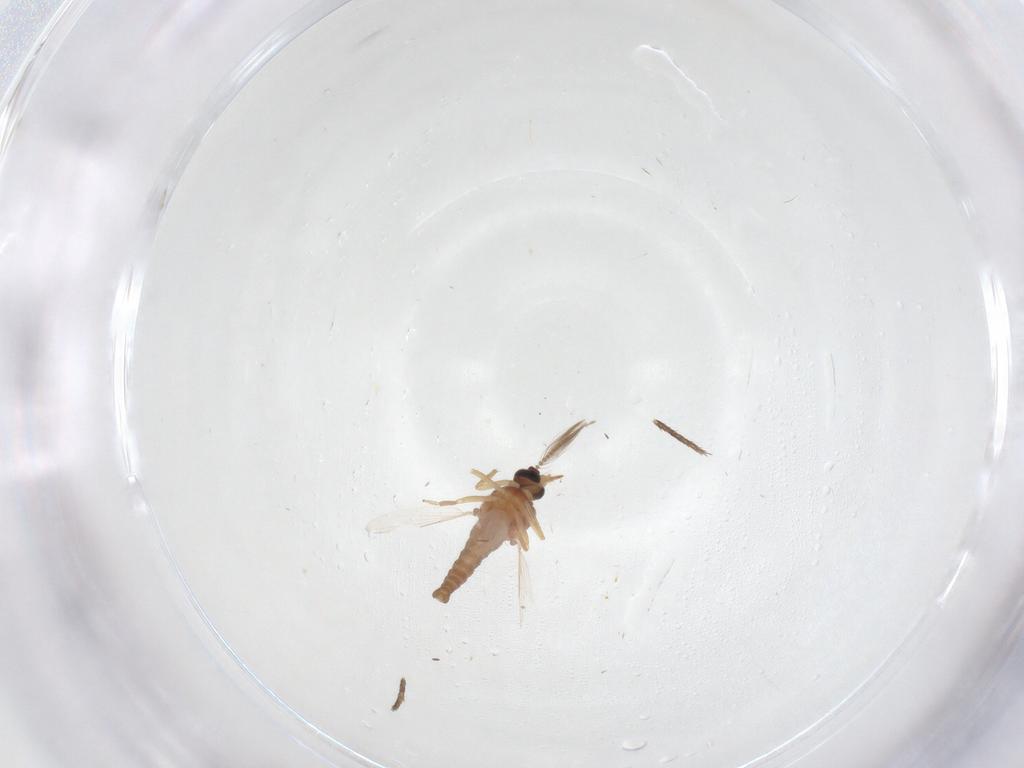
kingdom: Animalia
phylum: Arthropoda
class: Insecta
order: Diptera
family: Ceratopogonidae
